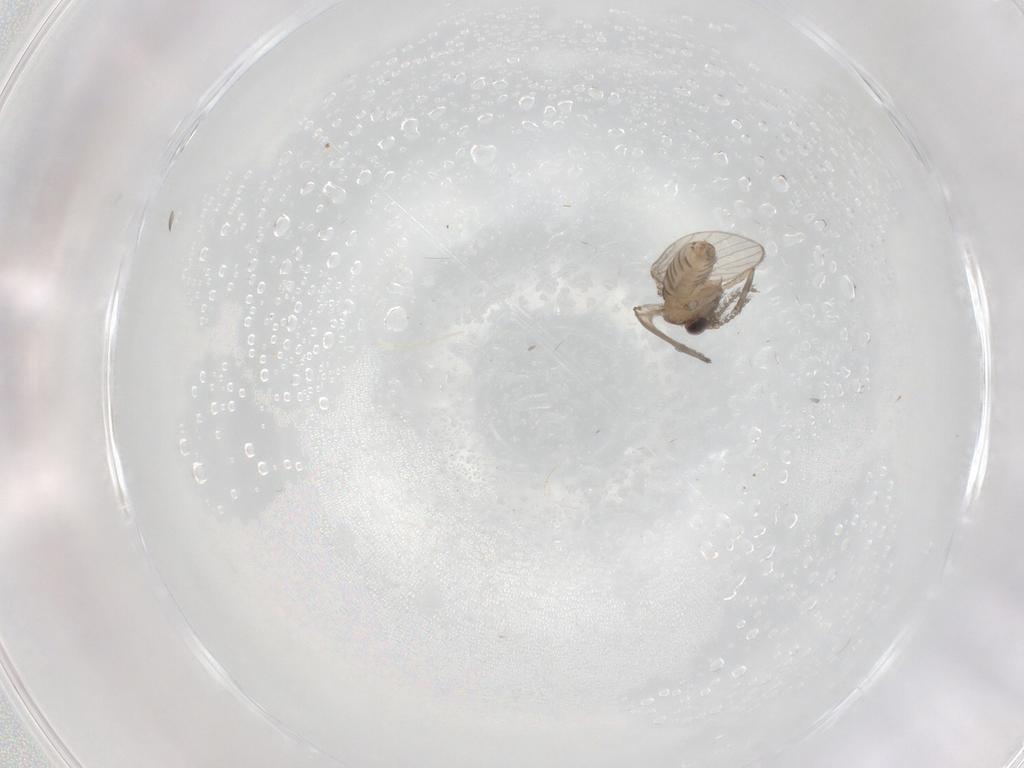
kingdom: Animalia
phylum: Arthropoda
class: Insecta
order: Diptera
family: Psychodidae
